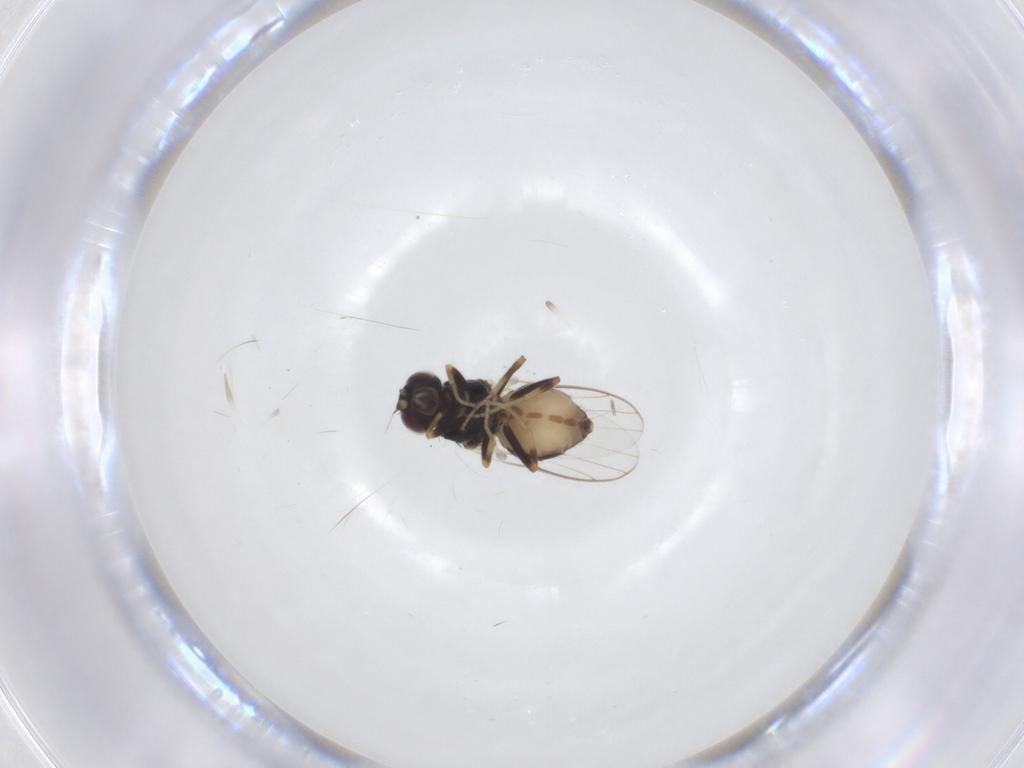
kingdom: Animalia
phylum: Arthropoda
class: Insecta
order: Diptera
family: Chloropidae
